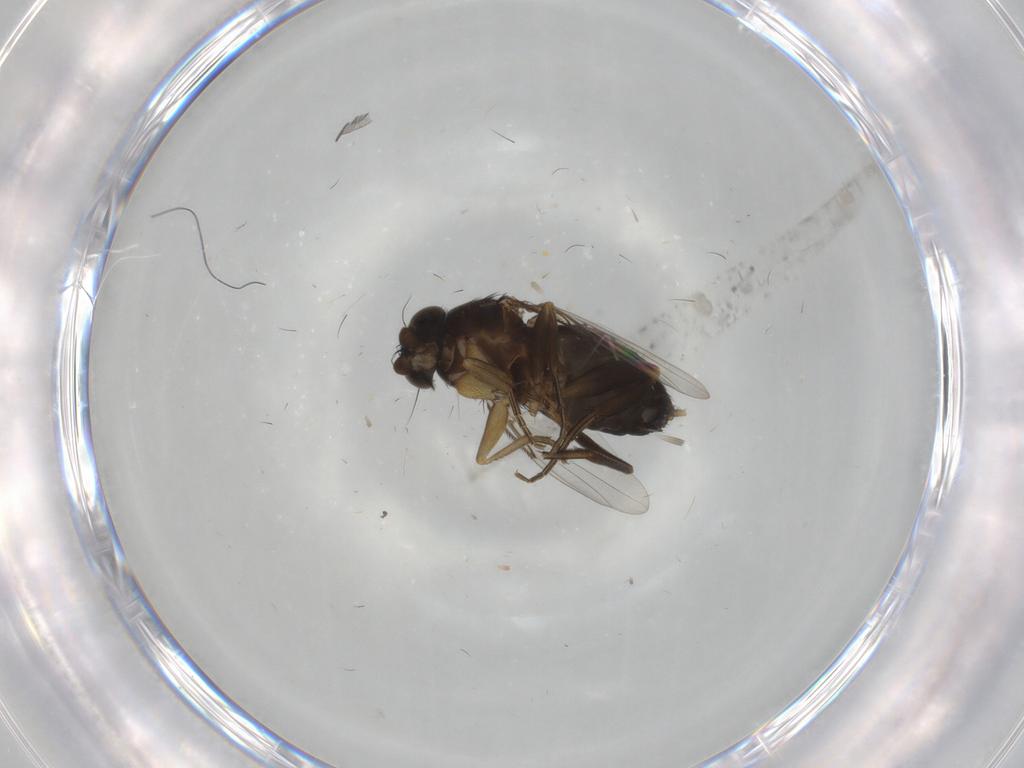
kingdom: Animalia
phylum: Arthropoda
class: Insecta
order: Diptera
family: Phoridae
